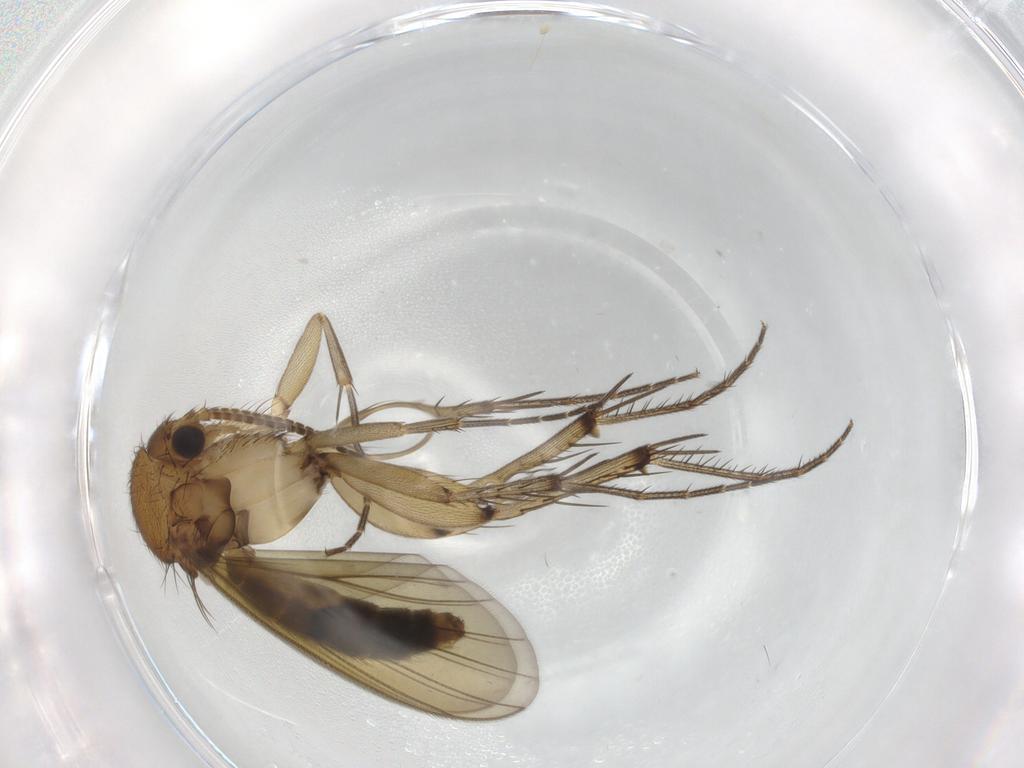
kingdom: Animalia
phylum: Arthropoda
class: Insecta
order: Diptera
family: Mycetophilidae
